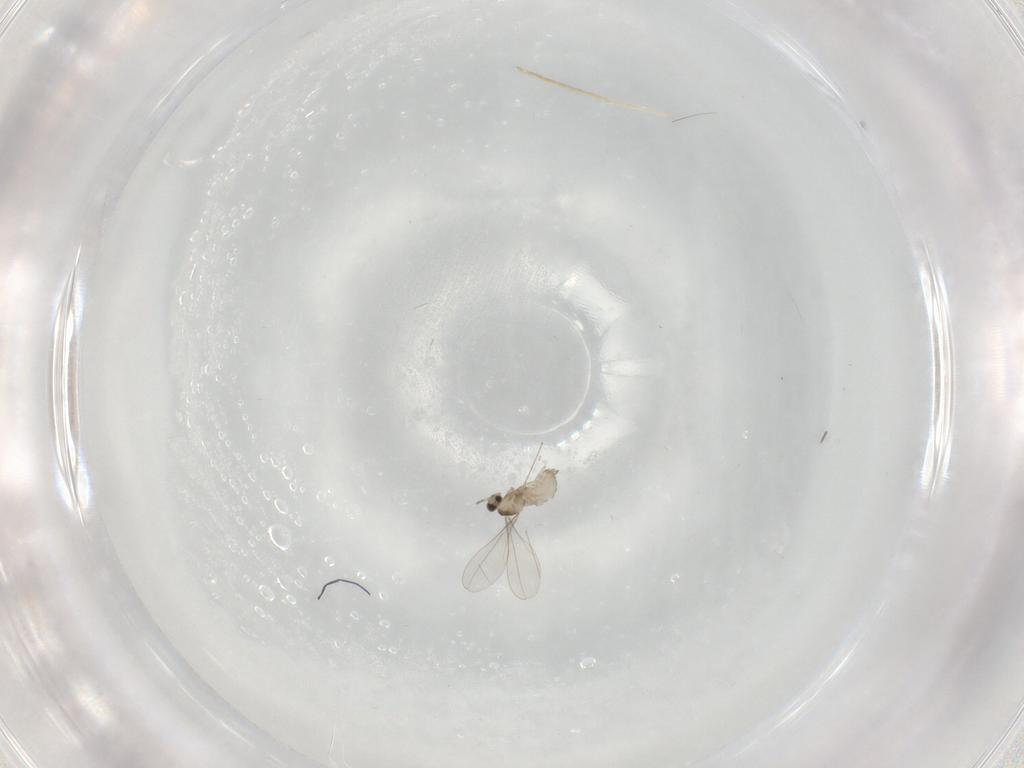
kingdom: Animalia
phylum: Arthropoda
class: Insecta
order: Diptera
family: Cecidomyiidae
